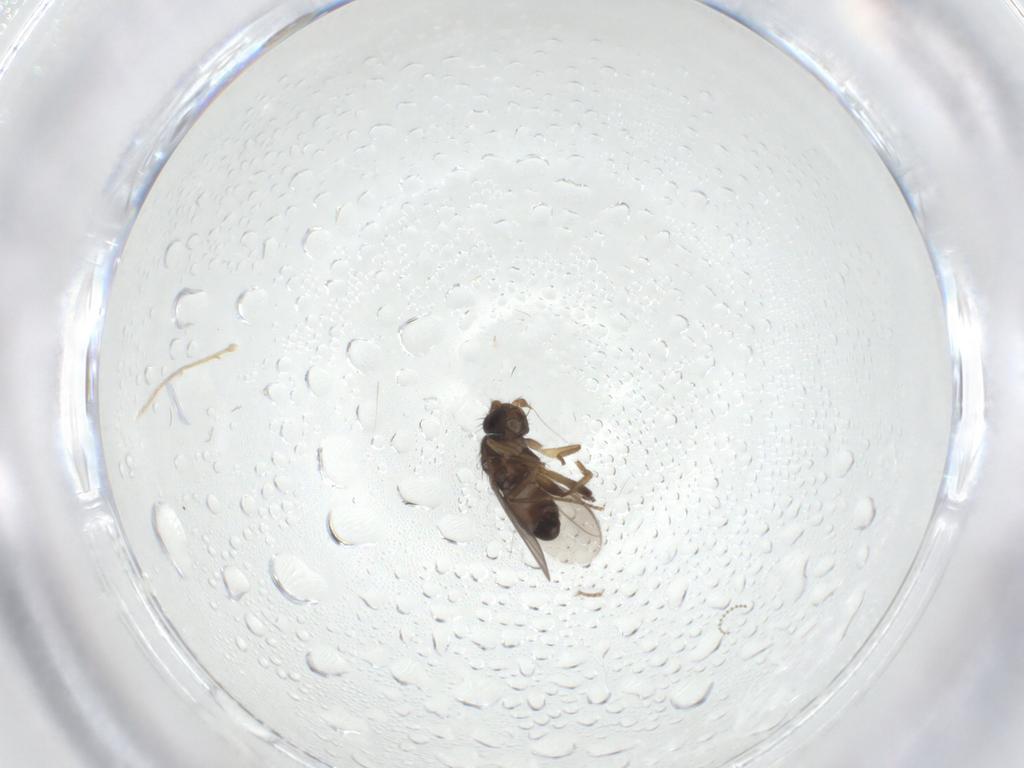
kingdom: Animalia
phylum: Arthropoda
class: Insecta
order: Diptera
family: Sphaeroceridae
